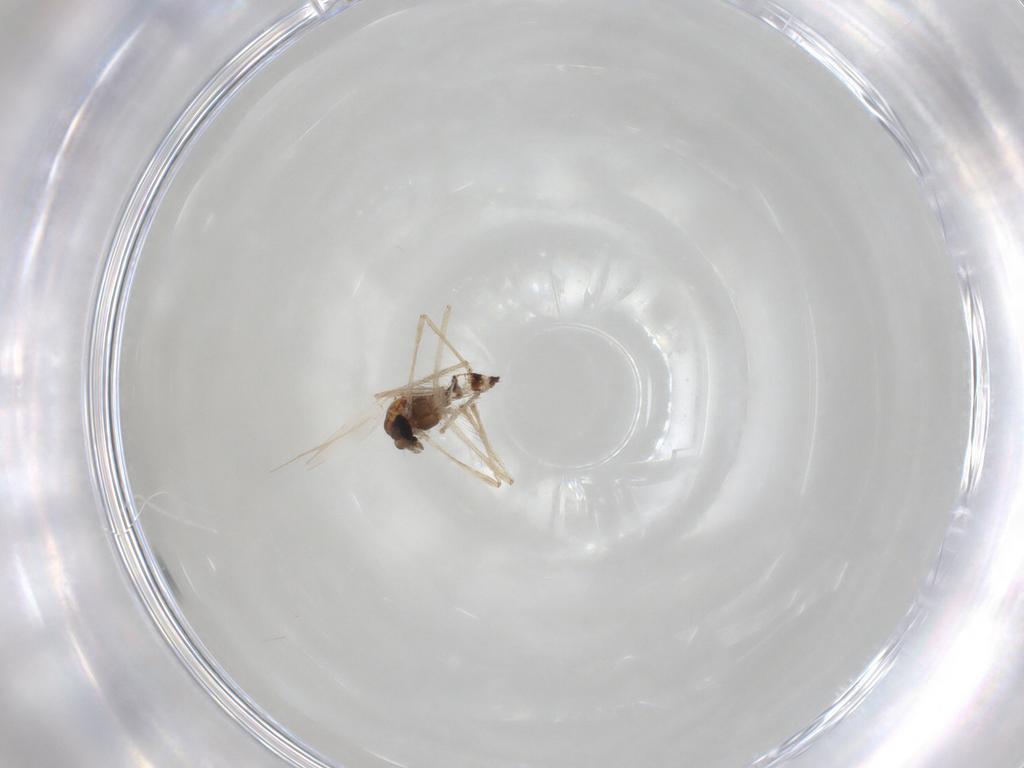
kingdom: Animalia
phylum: Arthropoda
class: Insecta
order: Diptera
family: Chironomidae
